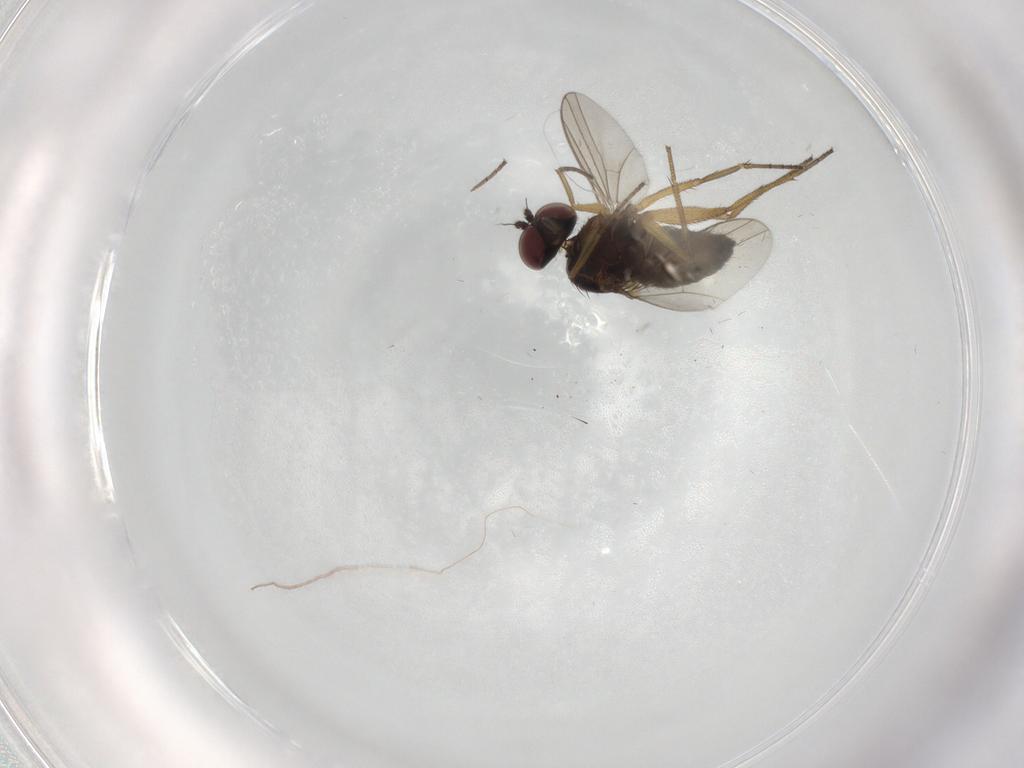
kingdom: Animalia
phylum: Arthropoda
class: Insecta
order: Diptera
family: Dolichopodidae
